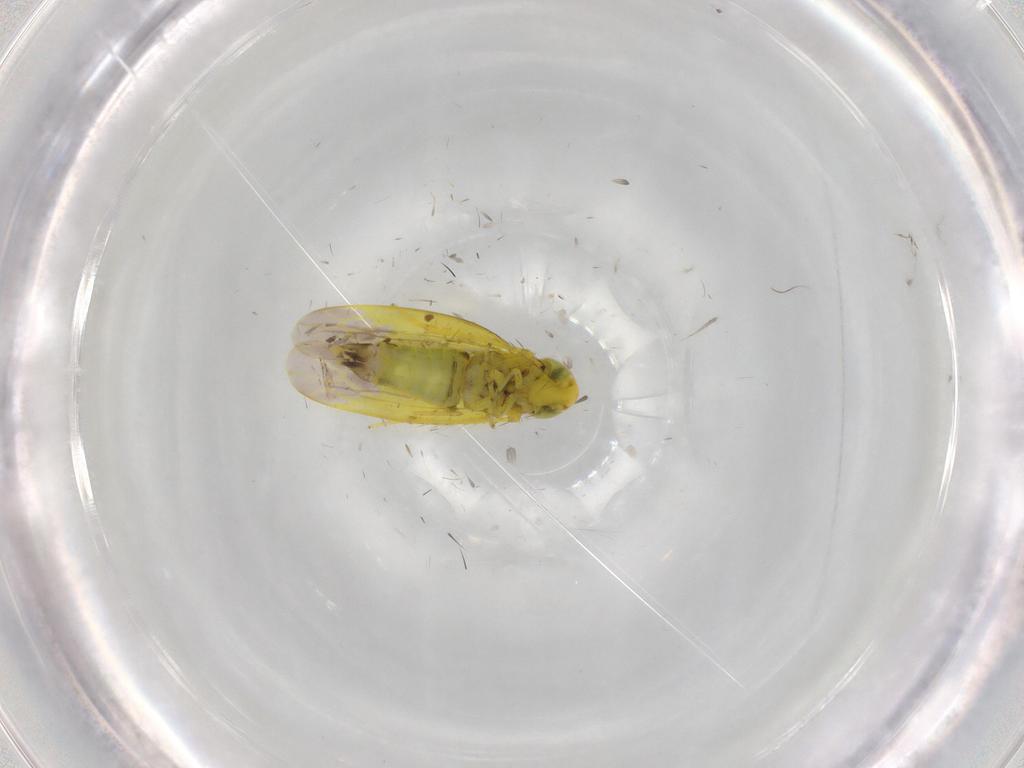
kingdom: Animalia
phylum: Arthropoda
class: Insecta
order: Hemiptera
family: Cicadellidae
